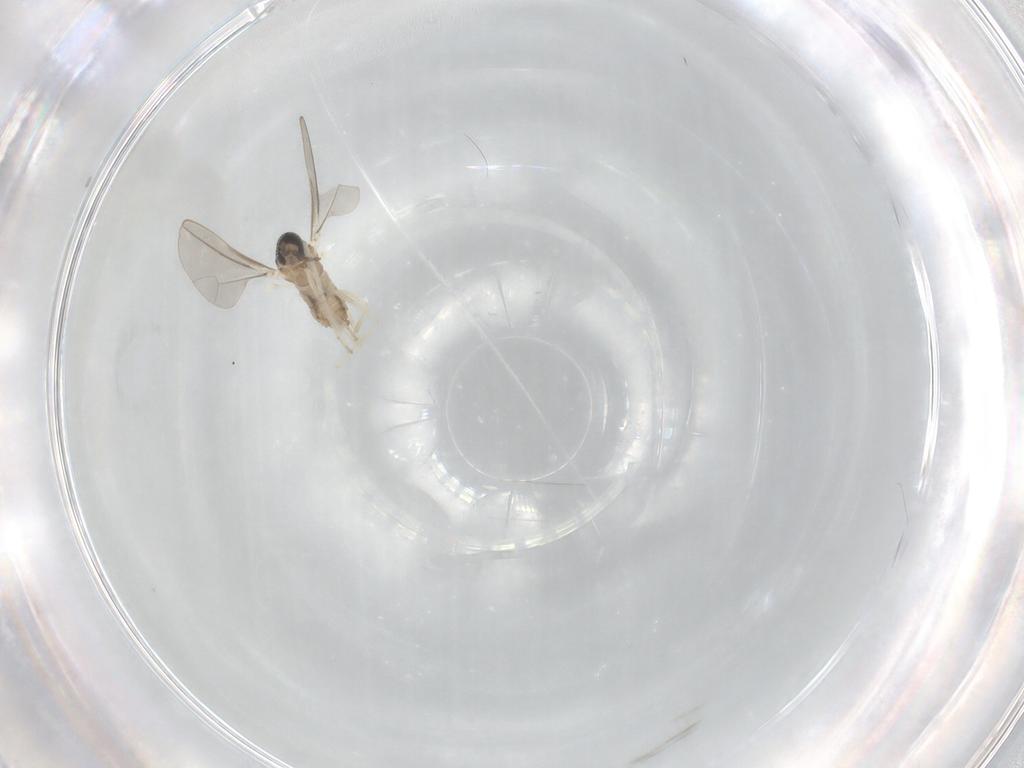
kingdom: Animalia
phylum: Arthropoda
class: Insecta
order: Diptera
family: Cecidomyiidae
